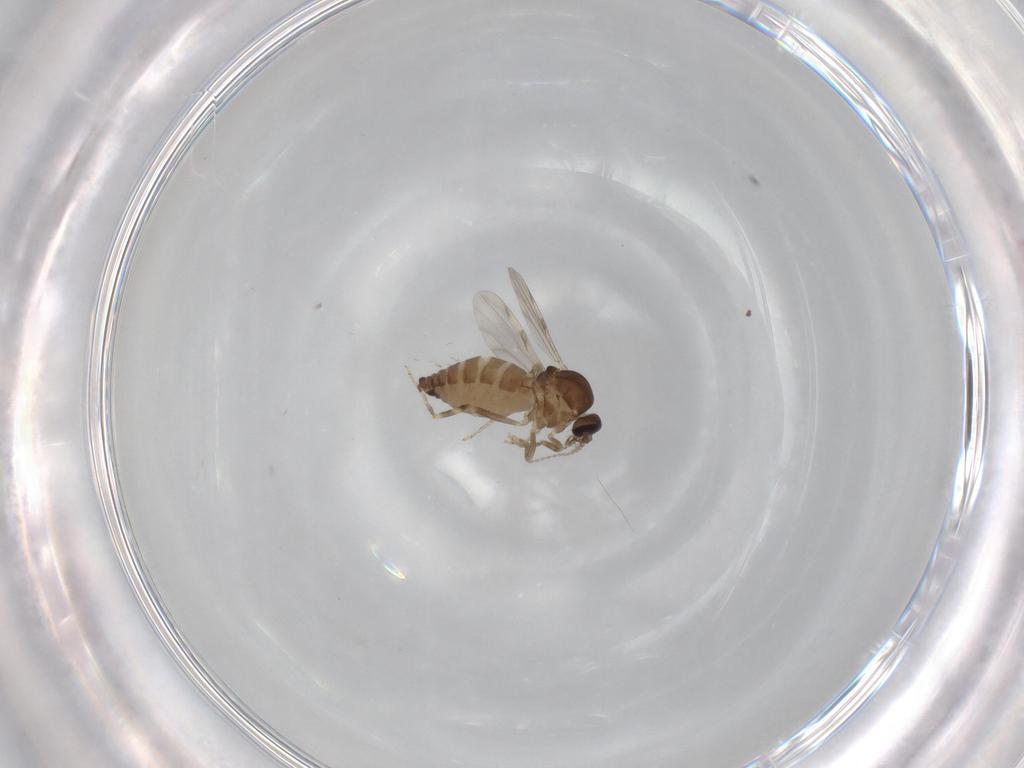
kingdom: Animalia
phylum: Arthropoda
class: Insecta
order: Diptera
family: Ceratopogonidae
